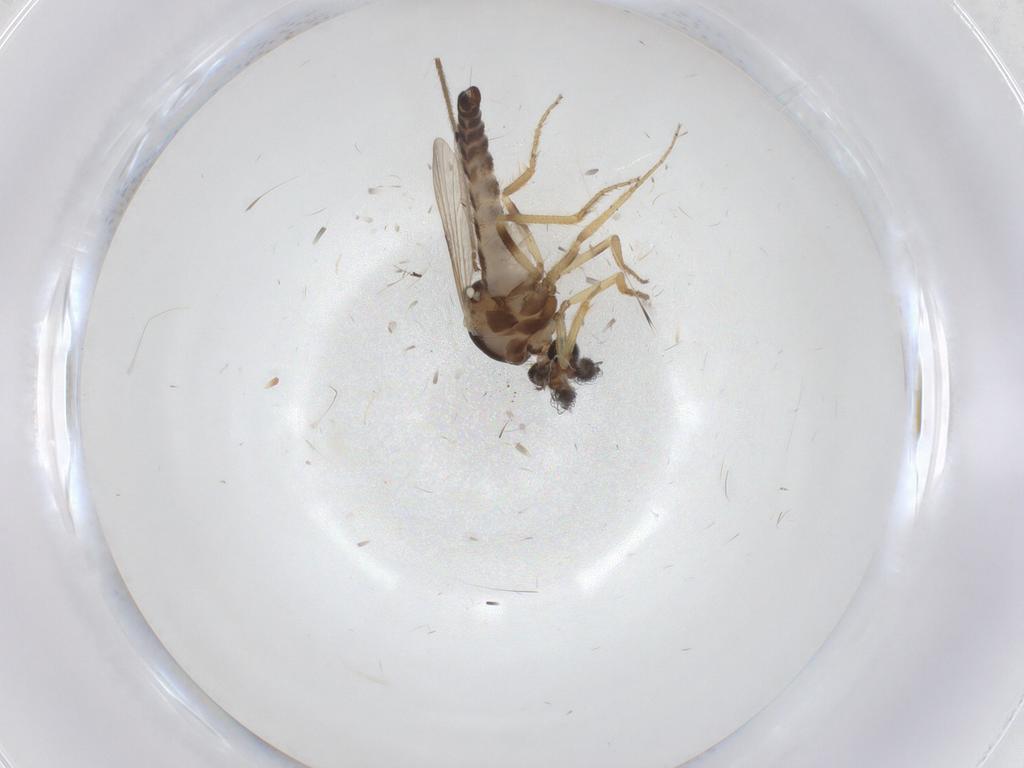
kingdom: Animalia
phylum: Arthropoda
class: Insecta
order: Diptera
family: Ceratopogonidae
